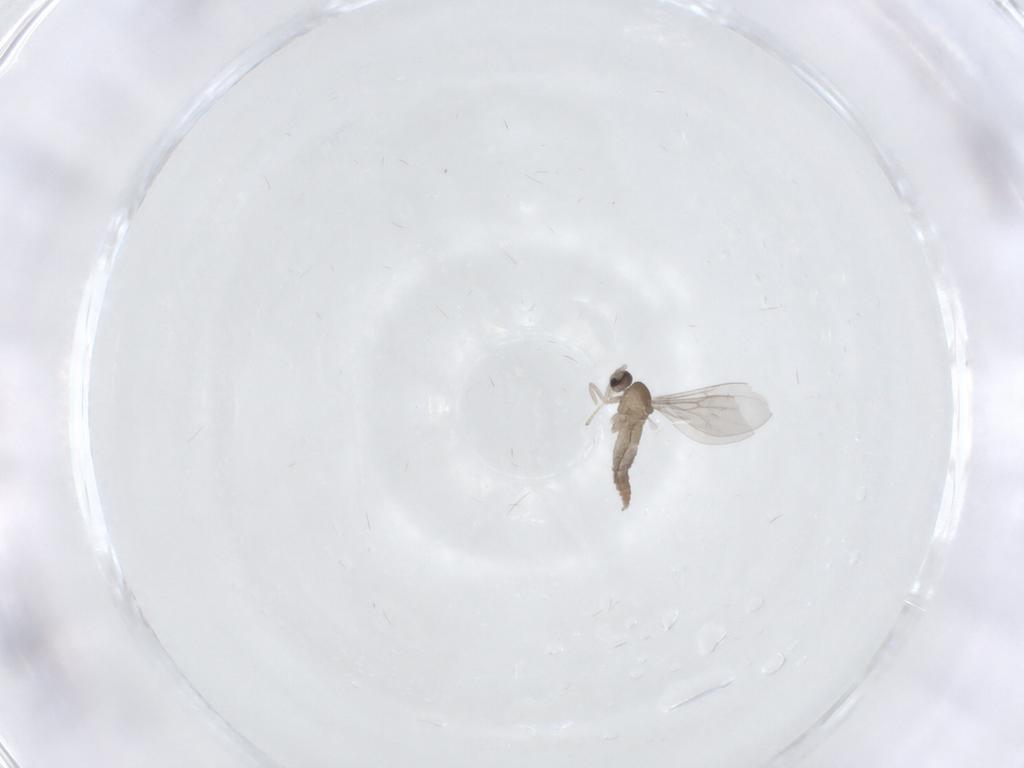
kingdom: Animalia
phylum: Arthropoda
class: Insecta
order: Diptera
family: Cecidomyiidae
